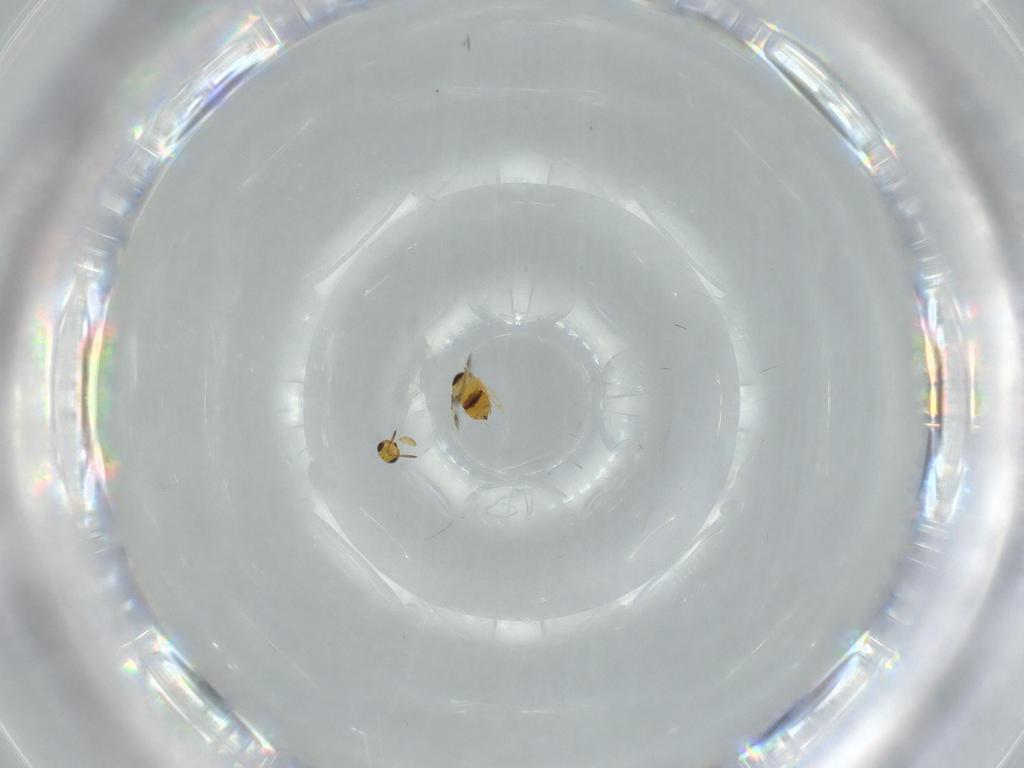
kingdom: Animalia
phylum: Arthropoda
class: Insecta
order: Hymenoptera
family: Signiphoridae
